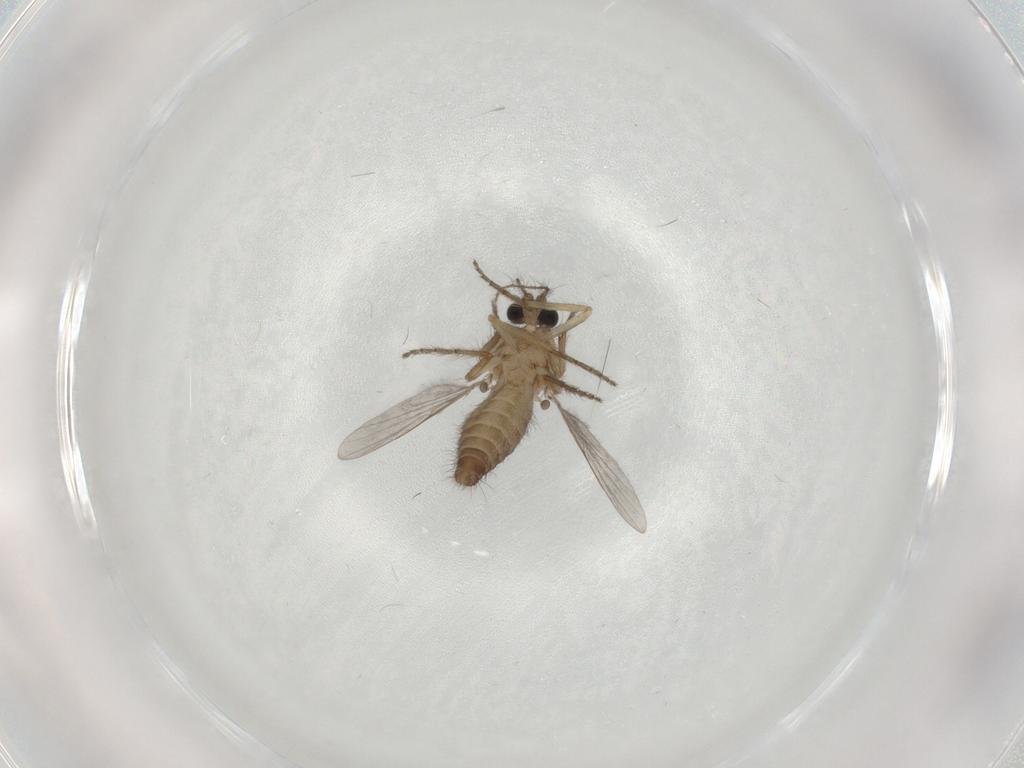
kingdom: Animalia
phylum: Arthropoda
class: Insecta
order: Diptera
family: Ceratopogonidae
